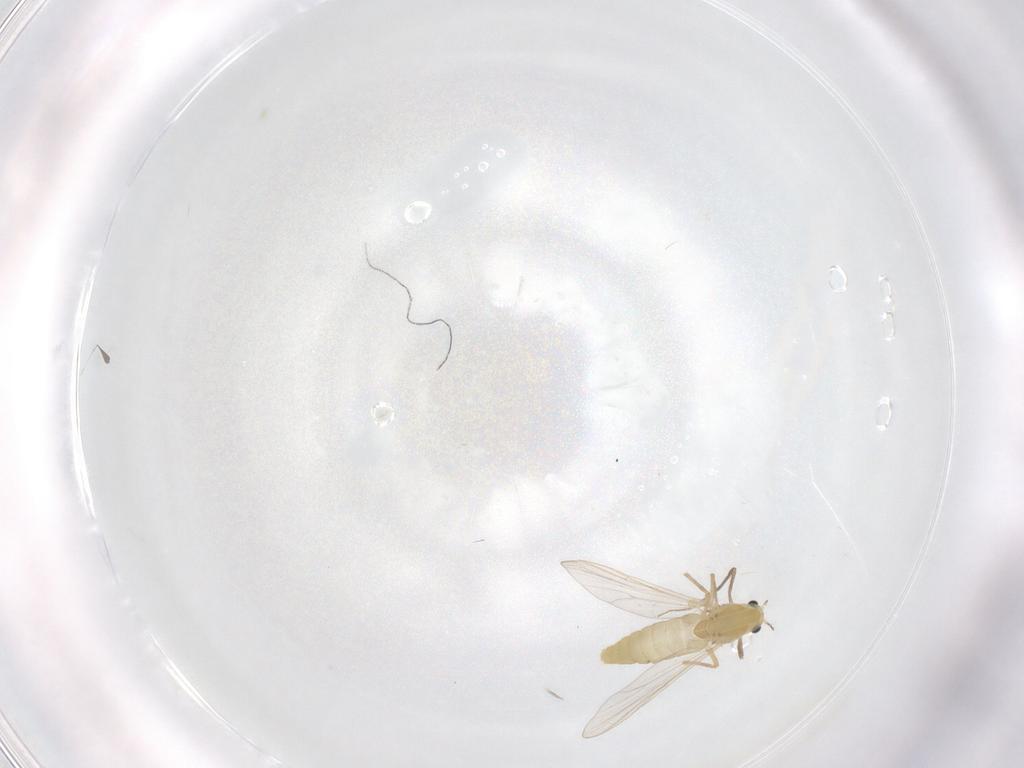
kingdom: Animalia
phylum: Arthropoda
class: Insecta
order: Diptera
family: Chironomidae
